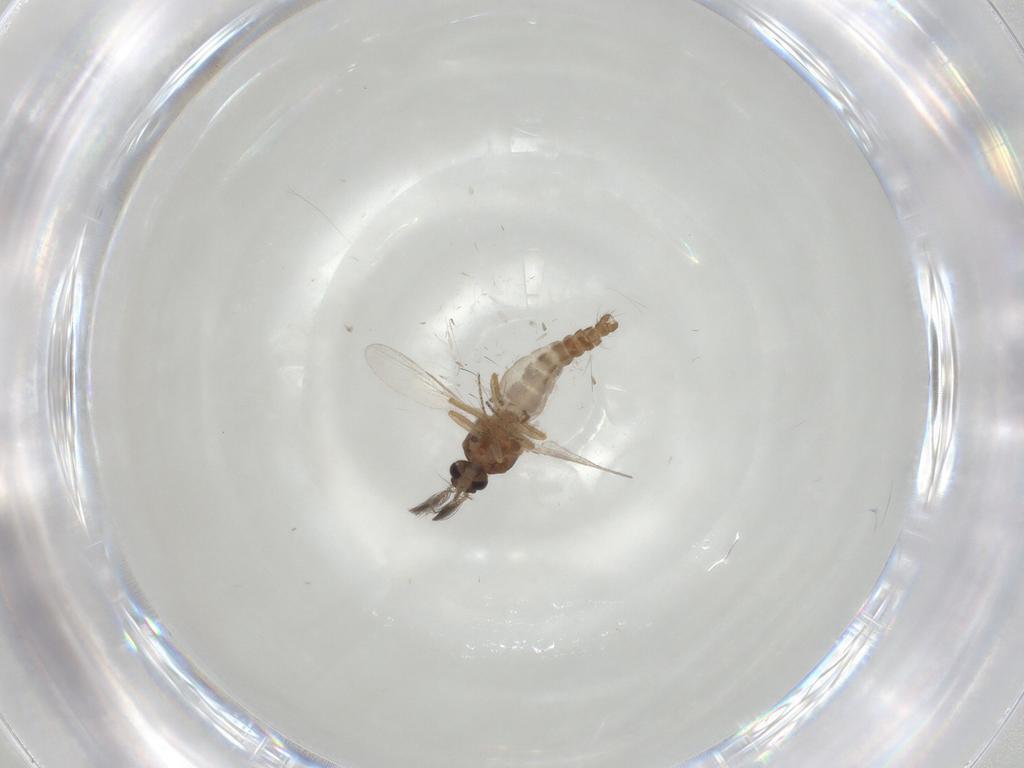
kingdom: Animalia
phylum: Arthropoda
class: Insecta
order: Diptera
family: Ceratopogonidae
